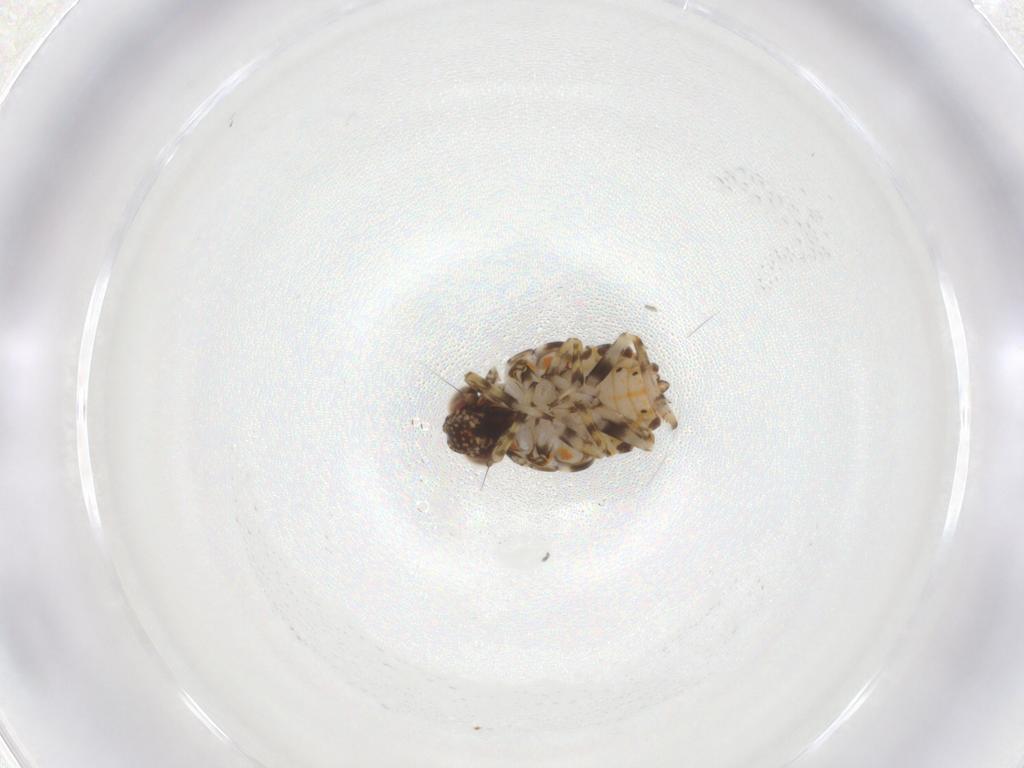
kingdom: Animalia
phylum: Arthropoda
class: Insecta
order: Hemiptera
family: Issidae
